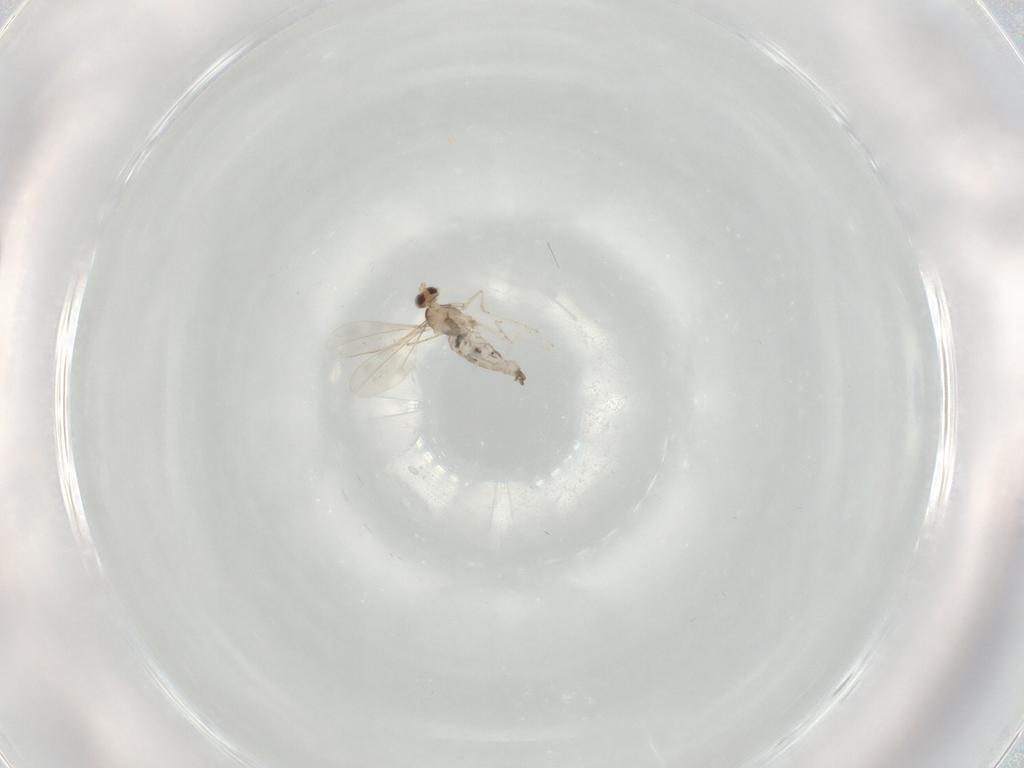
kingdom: Animalia
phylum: Arthropoda
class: Insecta
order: Diptera
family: Cecidomyiidae
